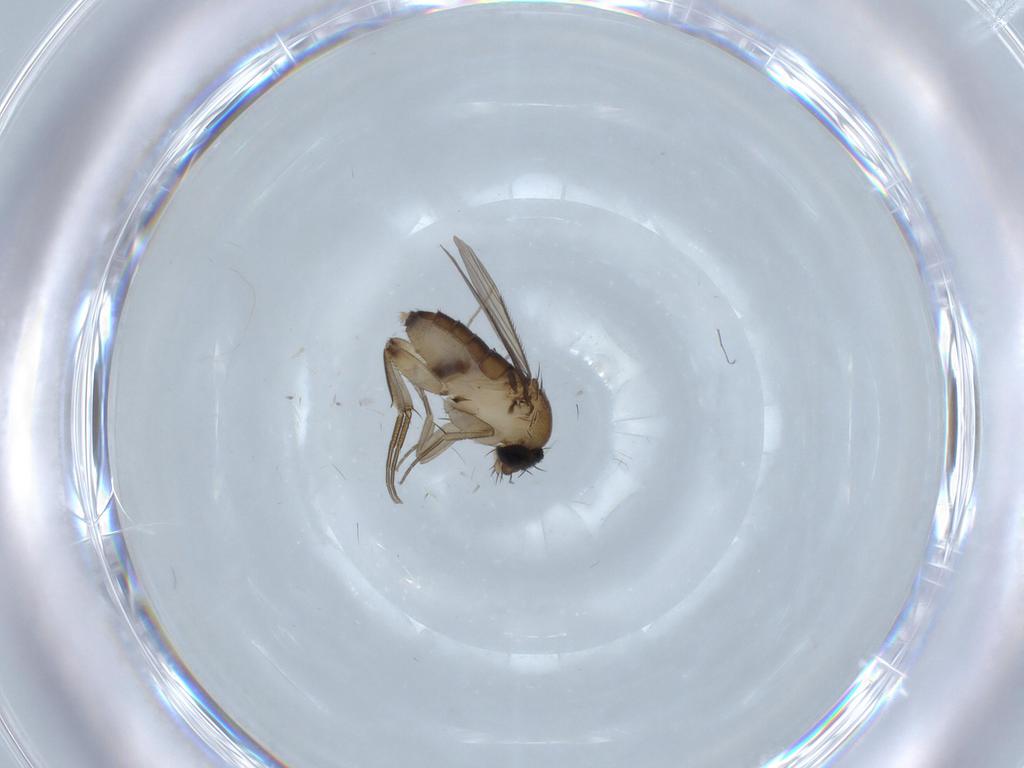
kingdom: Animalia
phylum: Arthropoda
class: Insecta
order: Diptera
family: Phoridae
